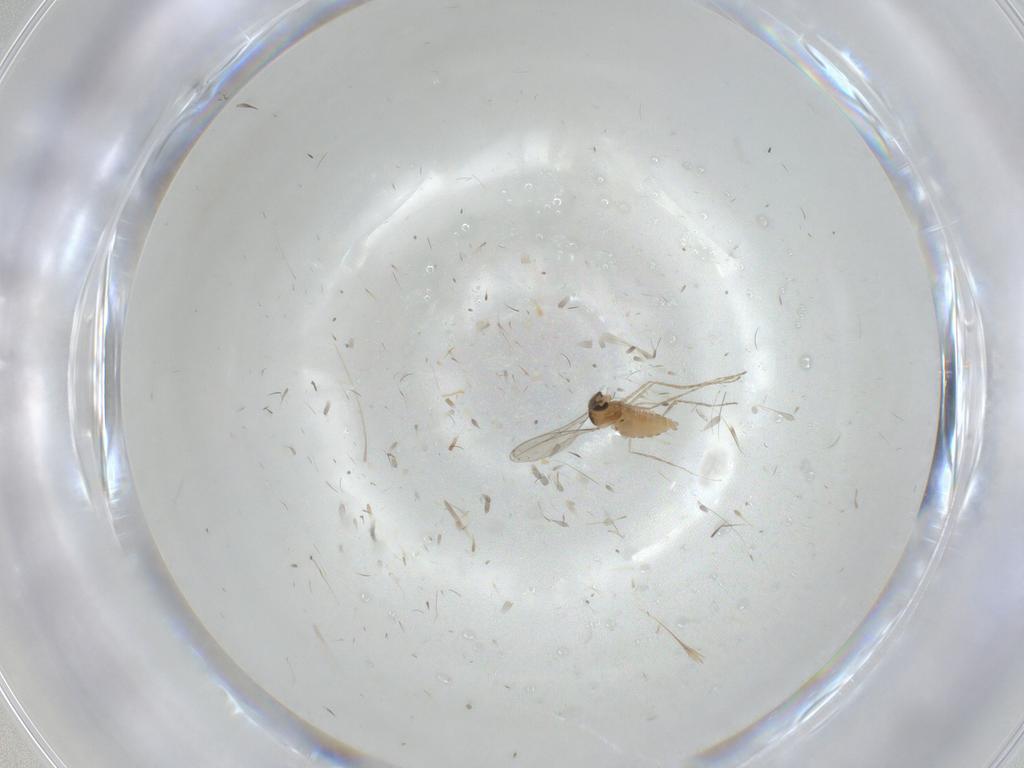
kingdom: Animalia
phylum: Arthropoda
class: Insecta
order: Diptera
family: Cecidomyiidae
